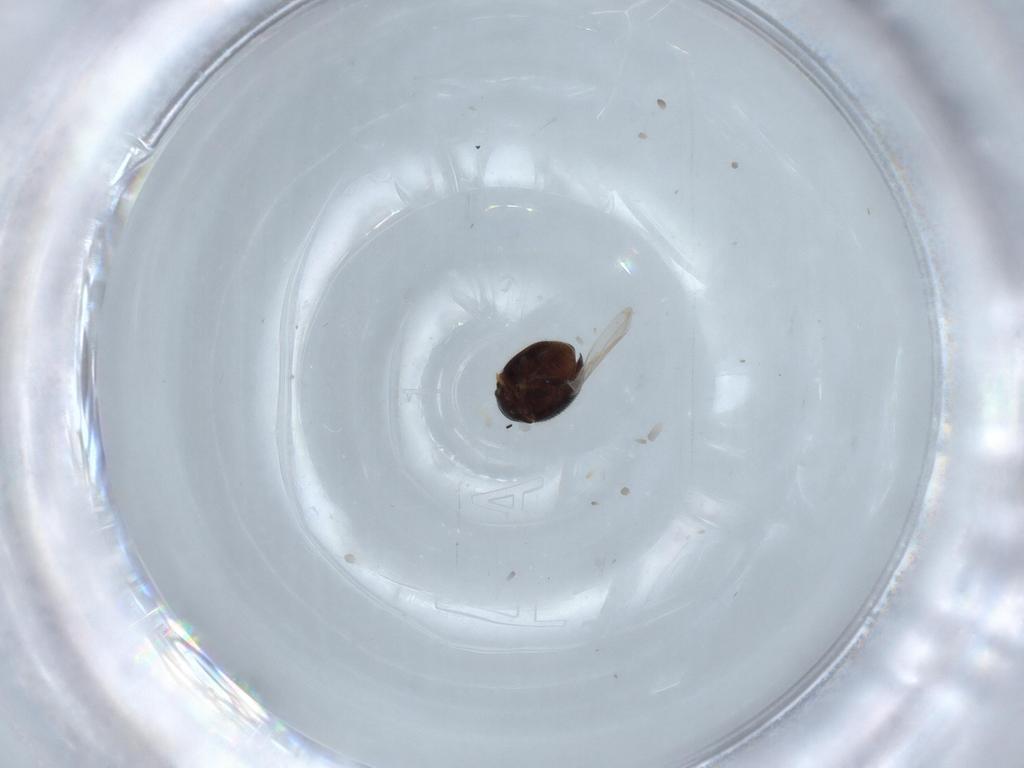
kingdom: Animalia
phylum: Arthropoda
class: Insecta
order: Coleoptera
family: Coccinellidae
